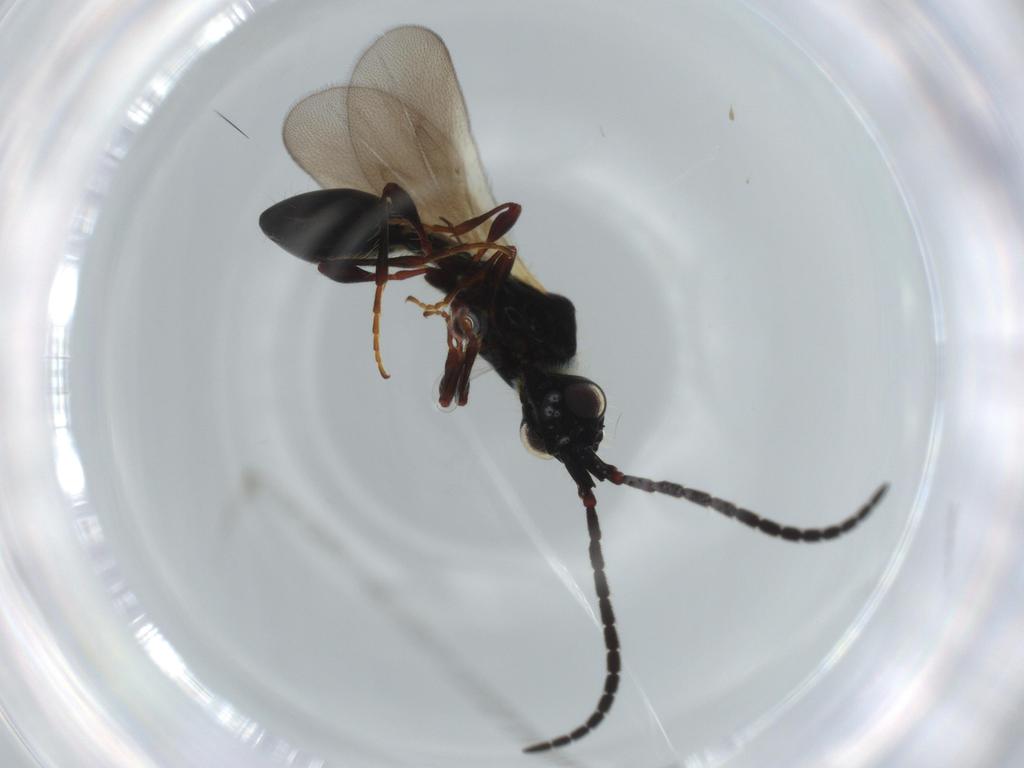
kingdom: Animalia
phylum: Arthropoda
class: Insecta
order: Hymenoptera
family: Diapriidae
